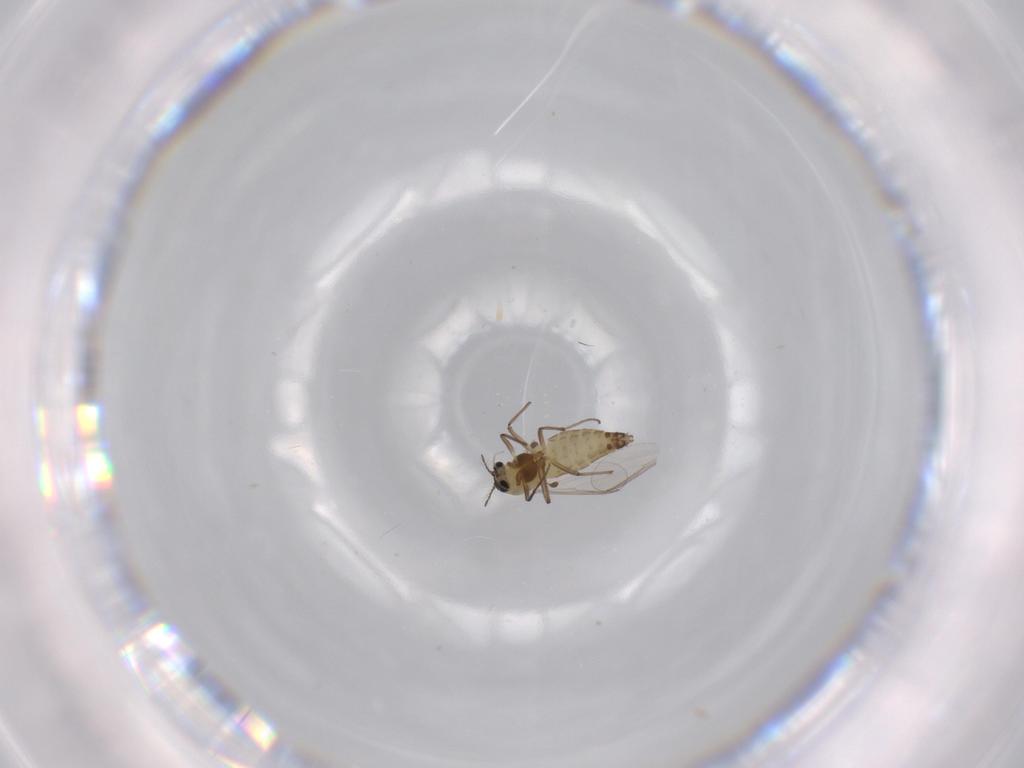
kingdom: Animalia
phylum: Arthropoda
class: Insecta
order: Diptera
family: Chironomidae
